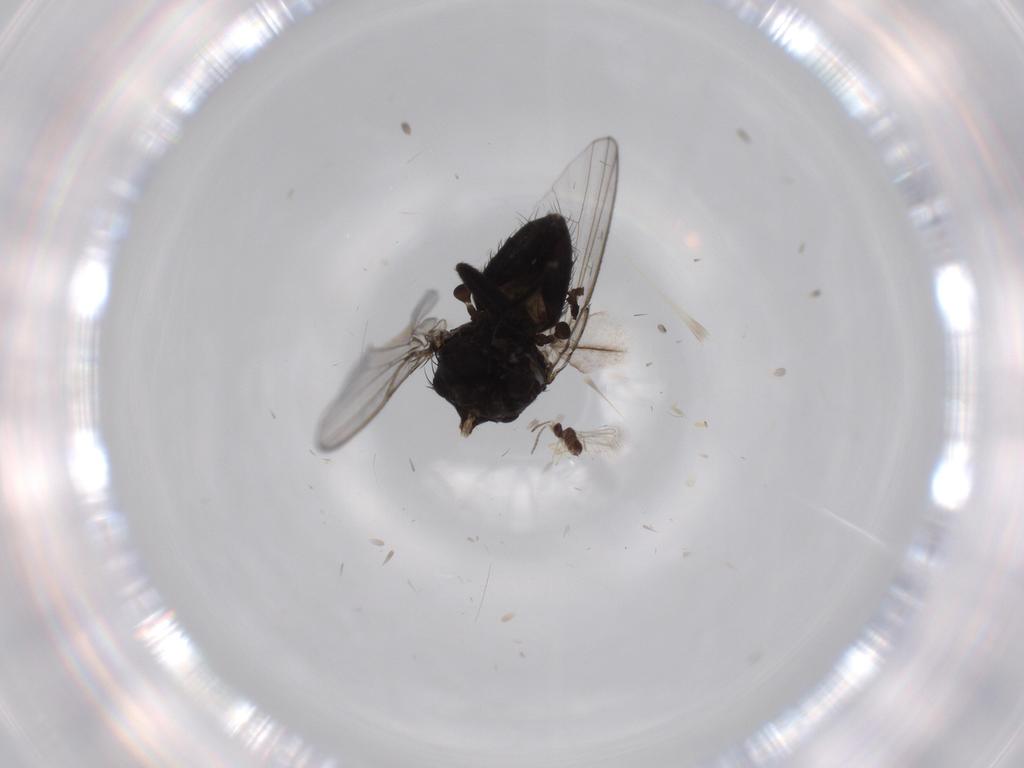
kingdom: Animalia
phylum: Arthropoda
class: Insecta
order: Diptera
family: Milichiidae
